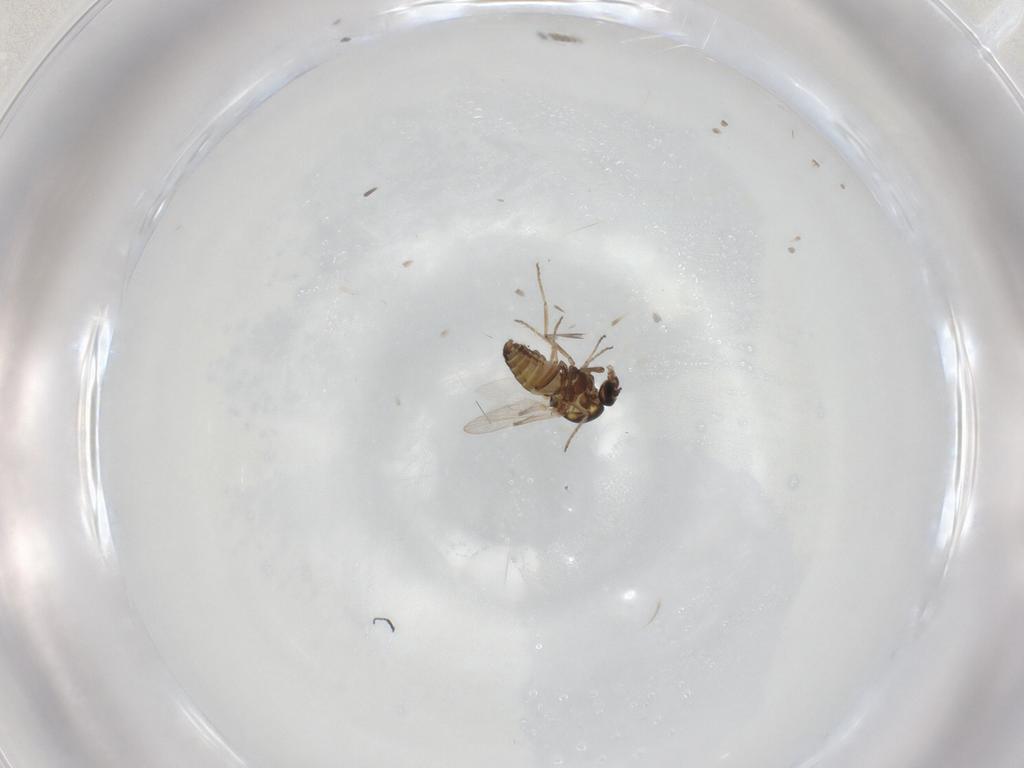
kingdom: Animalia
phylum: Arthropoda
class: Insecta
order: Diptera
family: Ceratopogonidae
